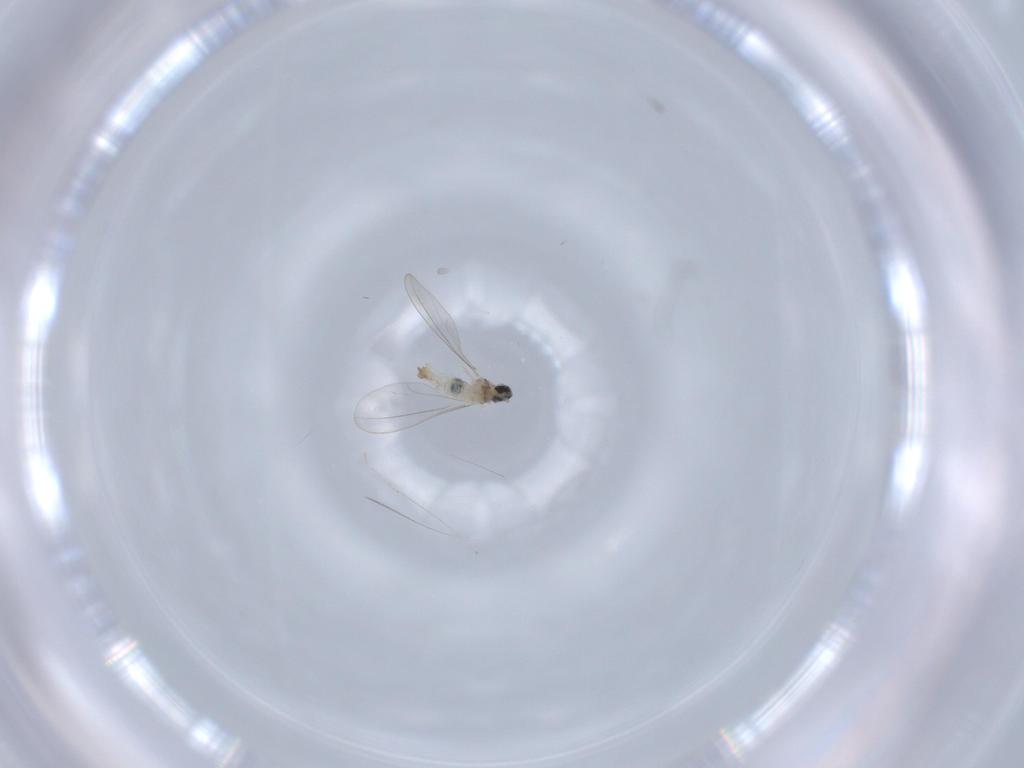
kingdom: Animalia
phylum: Arthropoda
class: Insecta
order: Diptera
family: Cecidomyiidae
